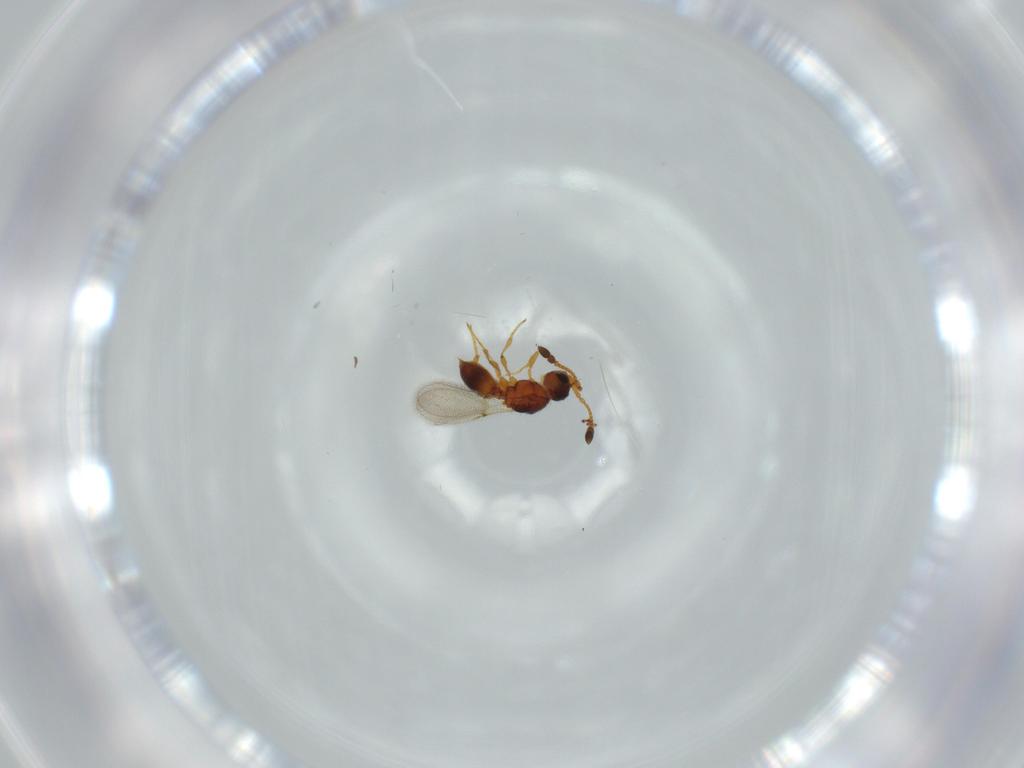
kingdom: Animalia
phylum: Arthropoda
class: Insecta
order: Hymenoptera
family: Diapriidae
